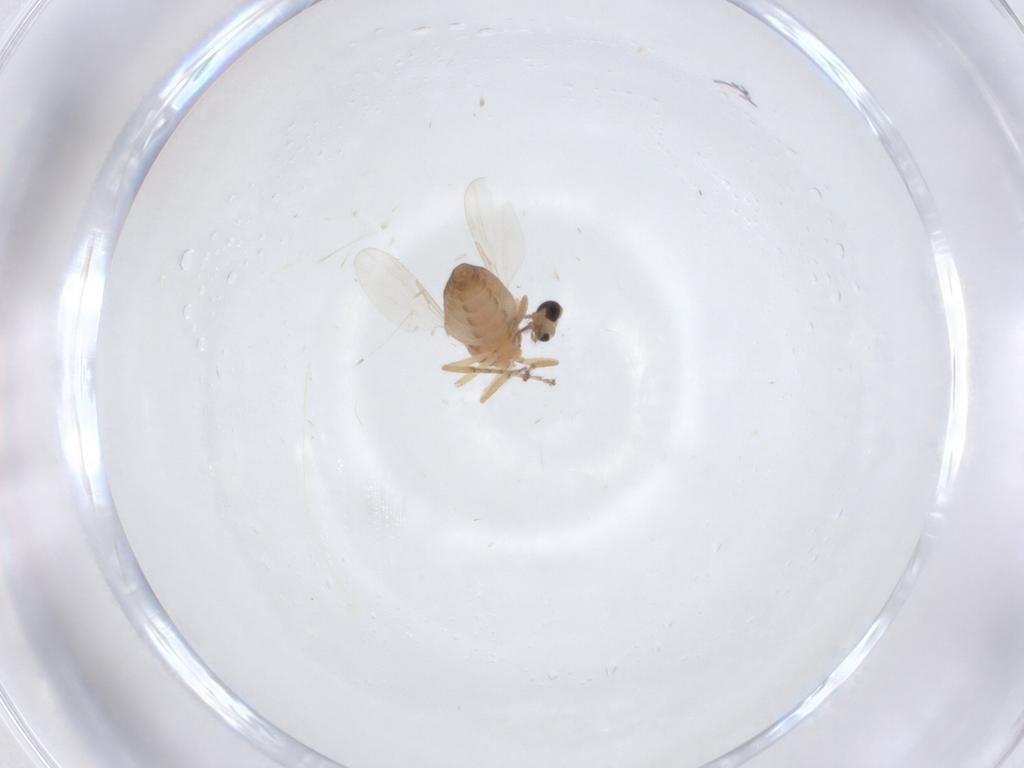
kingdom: Animalia
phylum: Arthropoda
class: Insecta
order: Diptera
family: Ceratopogonidae
